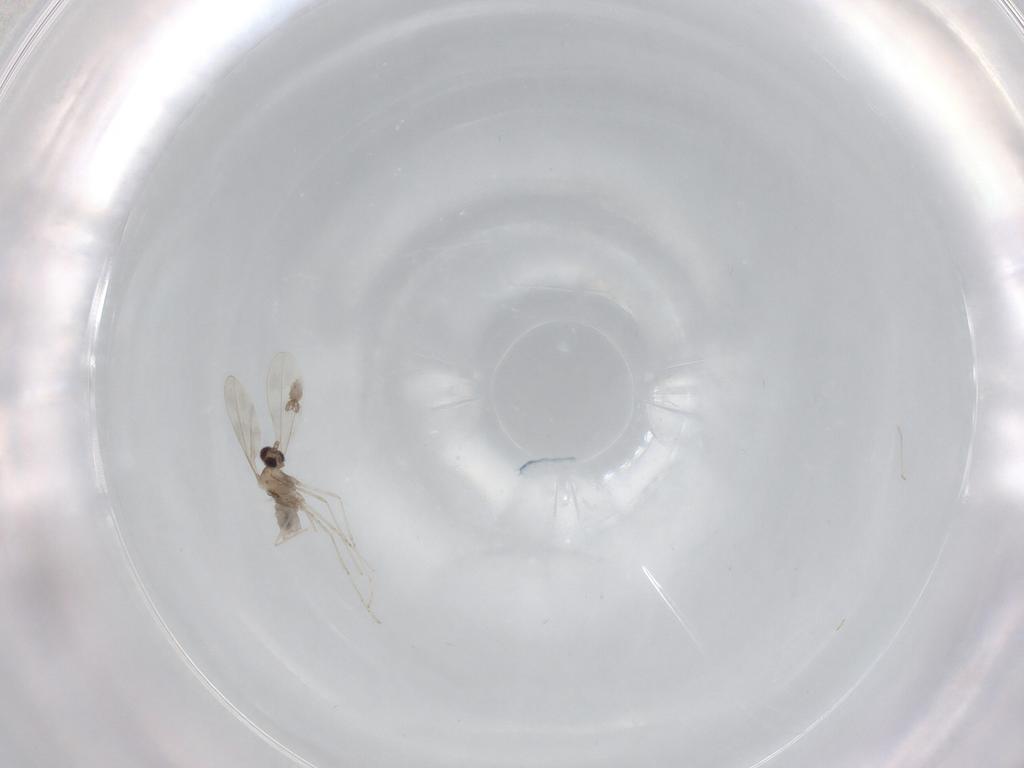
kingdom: Animalia
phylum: Arthropoda
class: Insecta
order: Diptera
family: Cecidomyiidae
